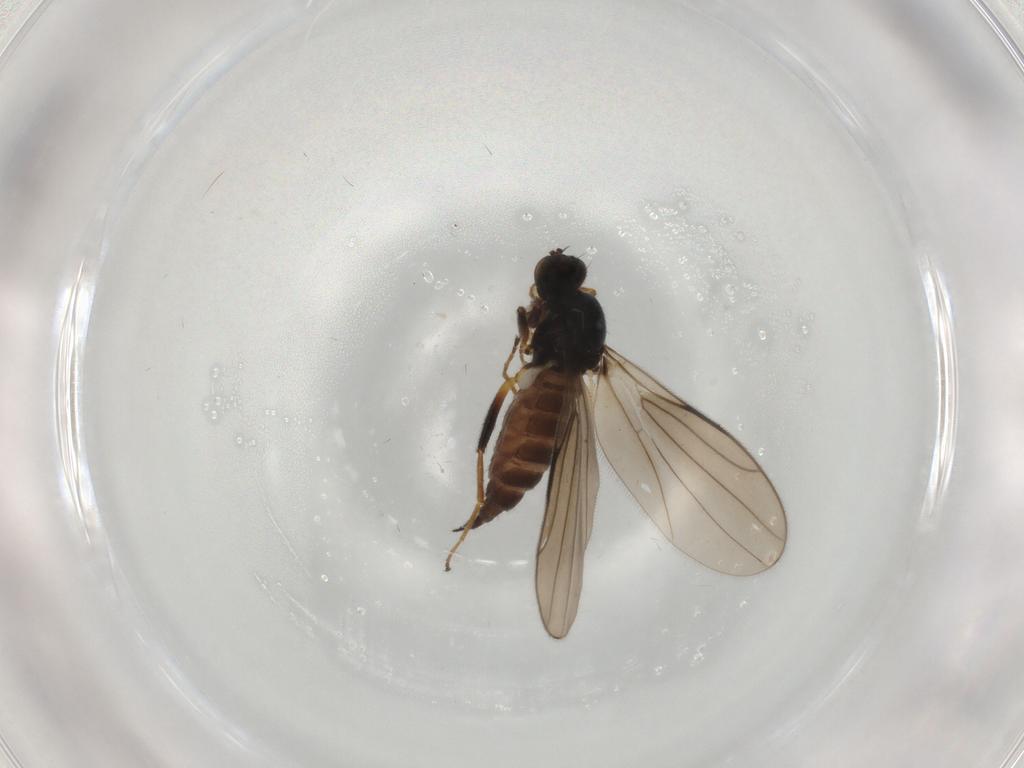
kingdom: Animalia
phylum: Arthropoda
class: Insecta
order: Diptera
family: Hybotidae
